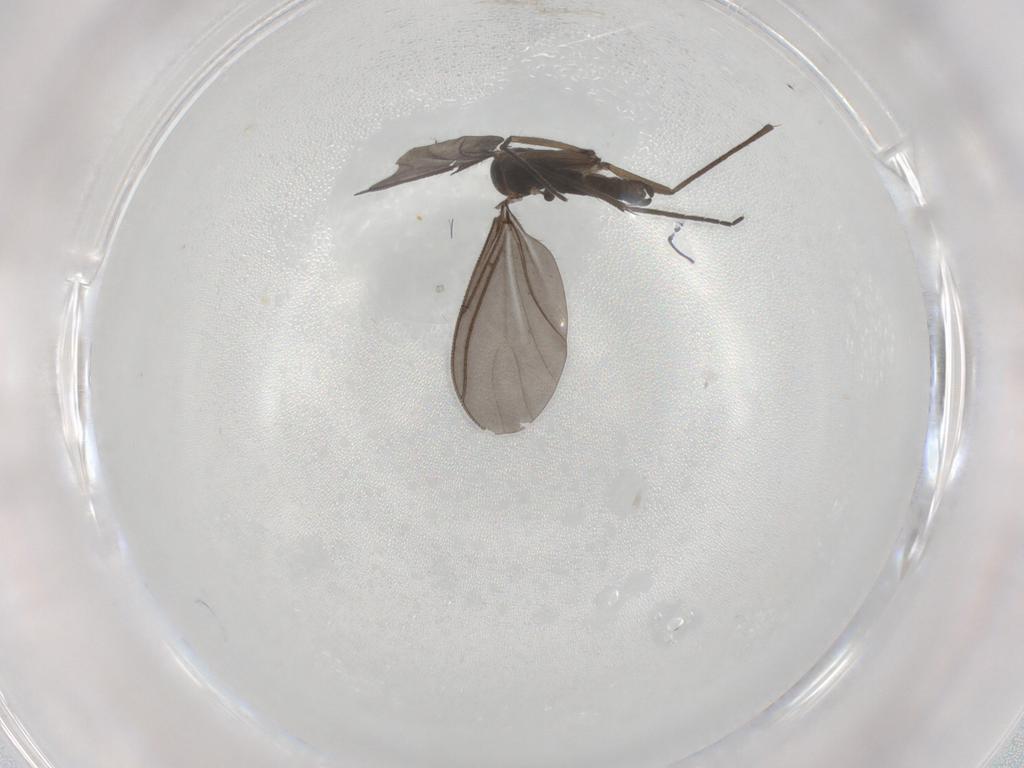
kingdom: Animalia
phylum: Arthropoda
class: Insecta
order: Diptera
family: Sciaridae
